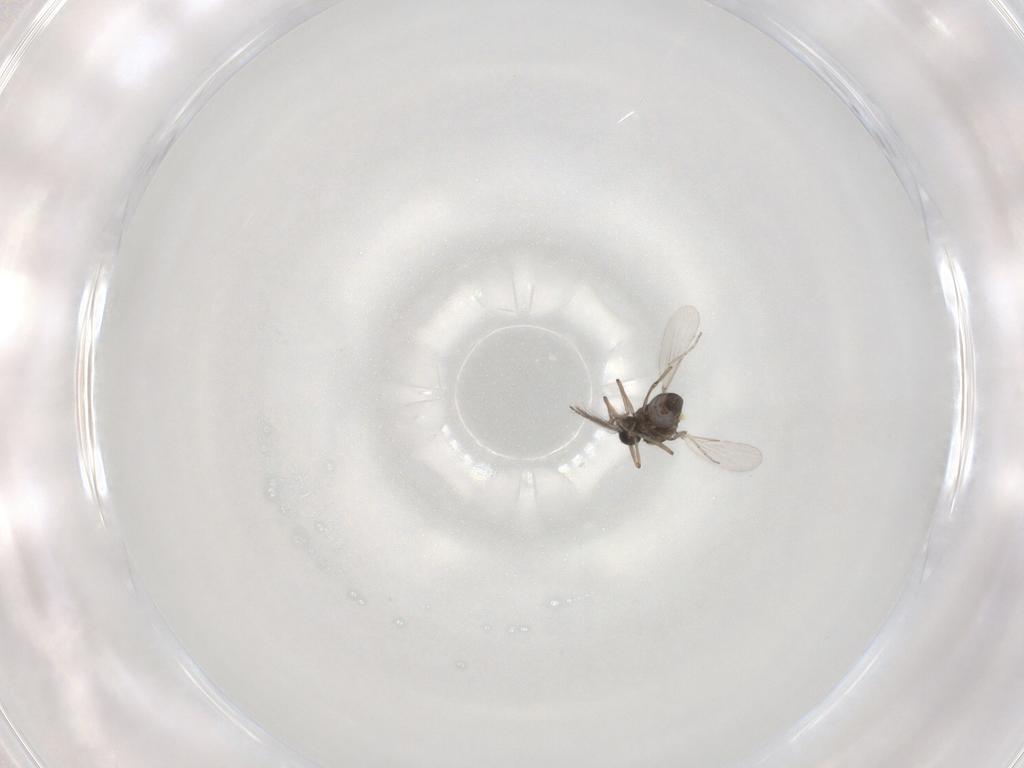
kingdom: Animalia
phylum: Arthropoda
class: Insecta
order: Diptera
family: Ceratopogonidae
